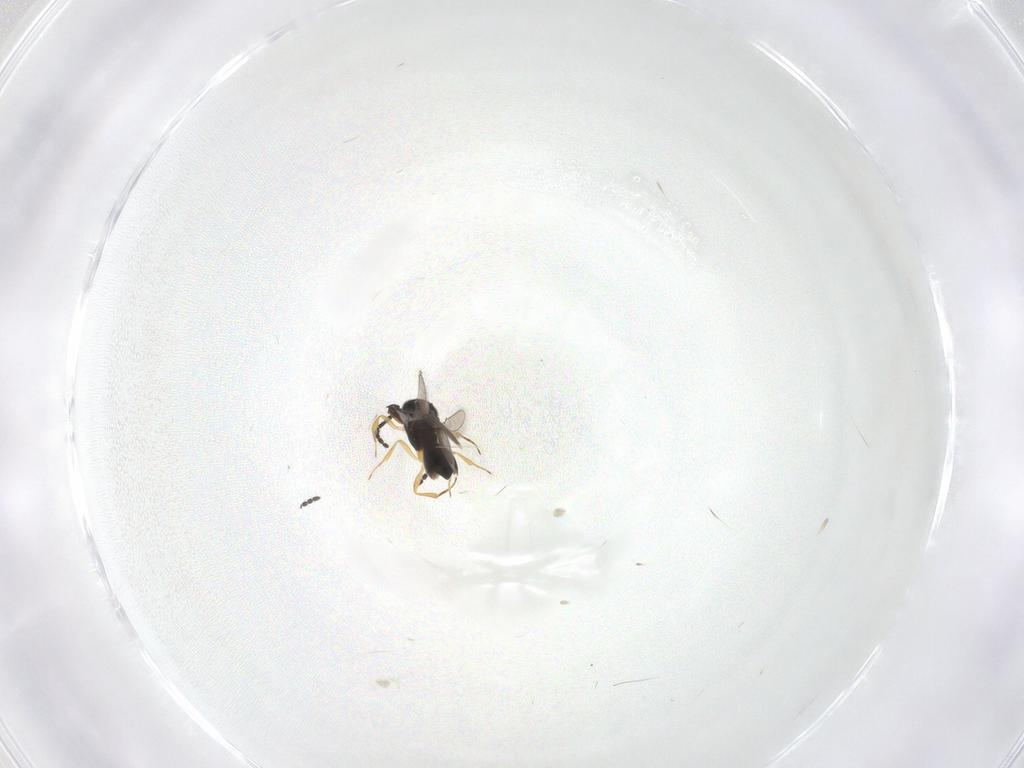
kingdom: Animalia
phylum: Arthropoda
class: Insecta
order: Hymenoptera
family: Scelionidae
